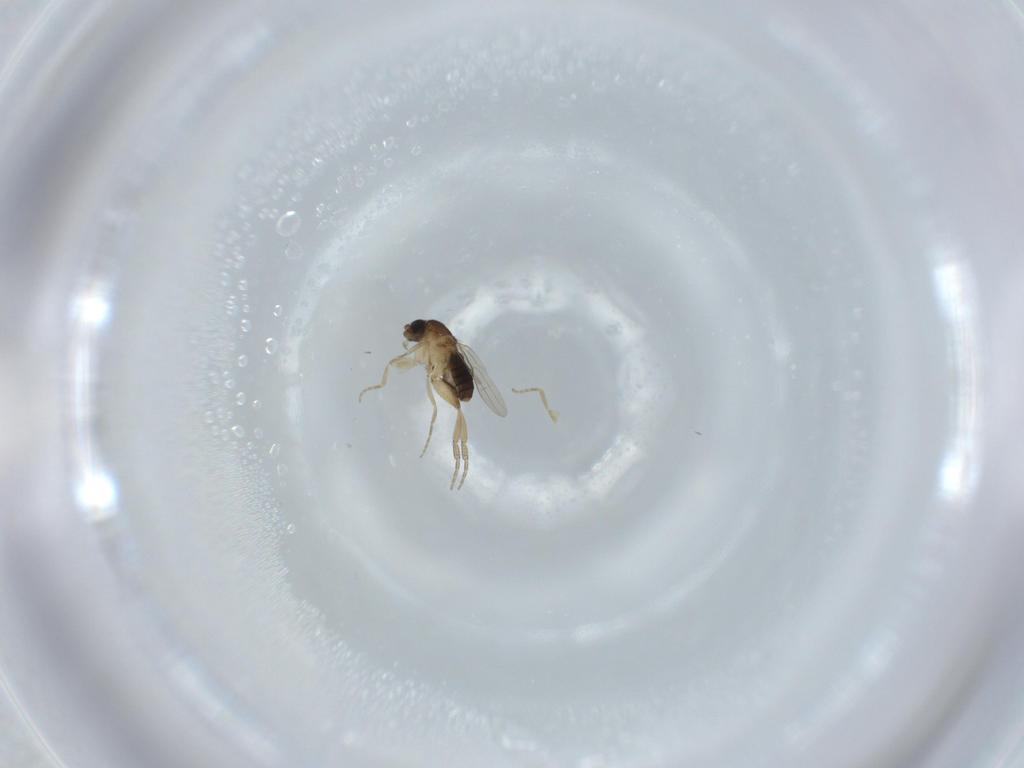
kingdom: Animalia
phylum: Arthropoda
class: Insecta
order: Diptera
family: Phoridae
